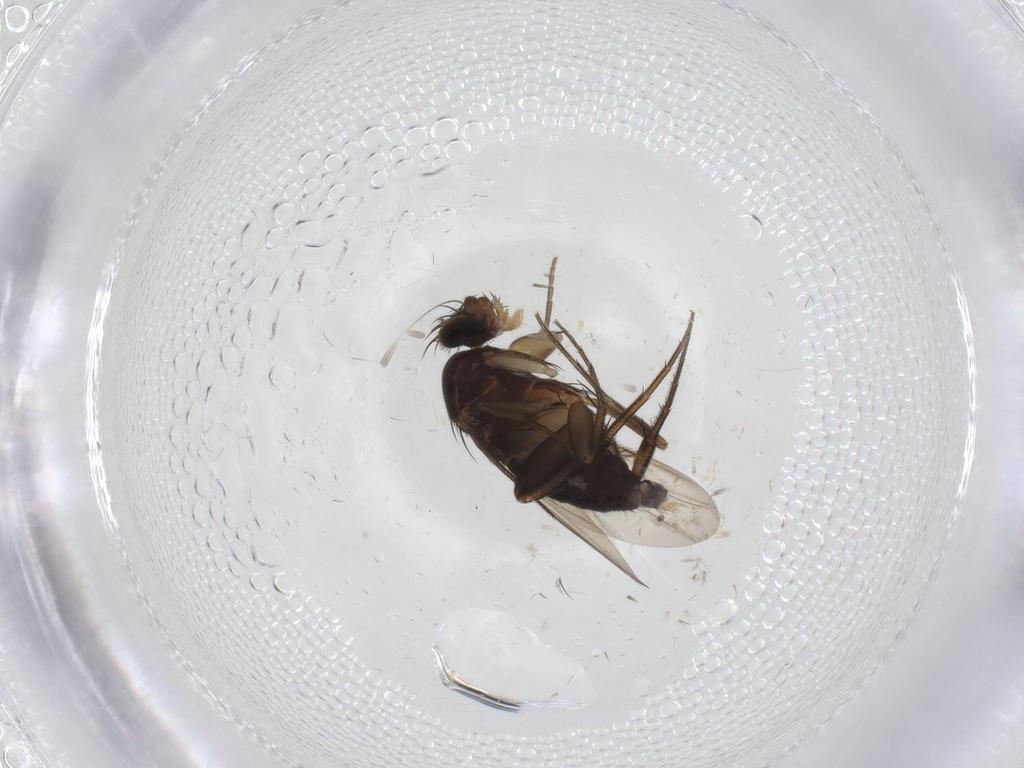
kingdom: Animalia
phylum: Arthropoda
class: Insecta
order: Diptera
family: Phoridae
